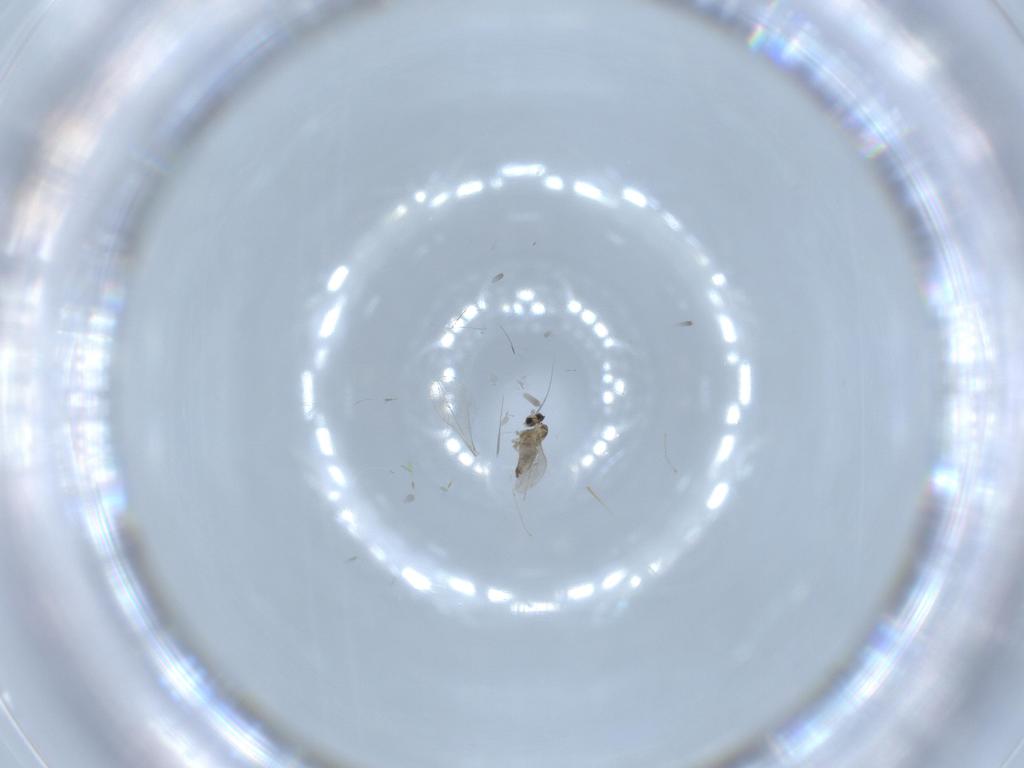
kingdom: Animalia
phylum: Arthropoda
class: Insecta
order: Diptera
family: Cecidomyiidae
